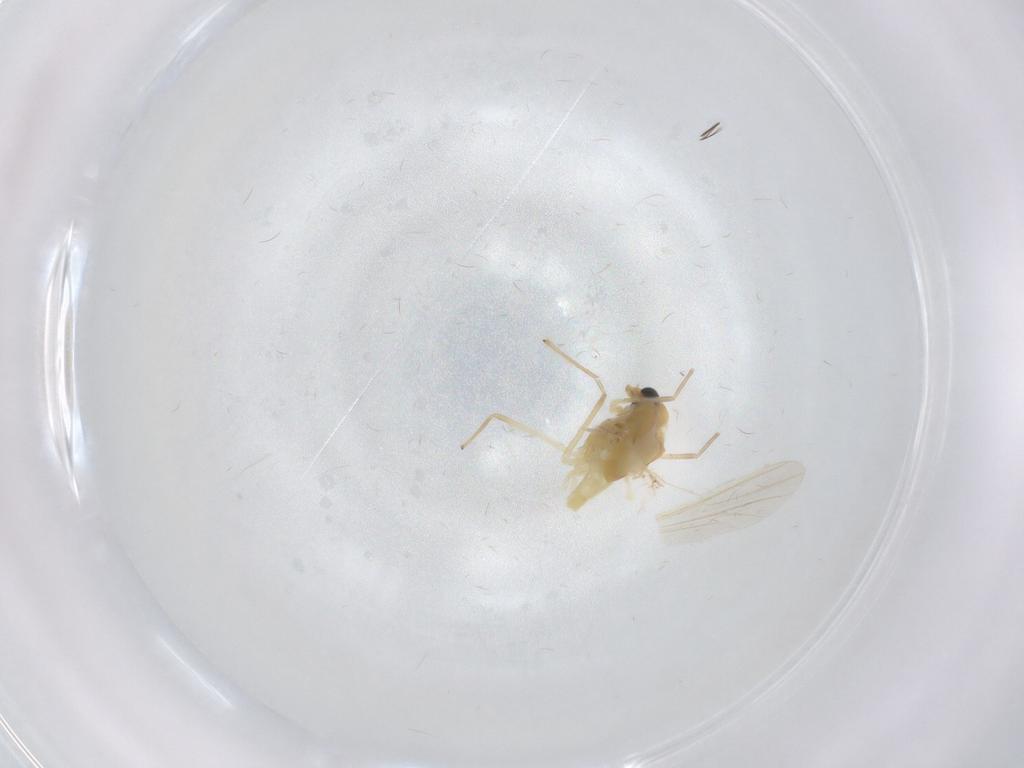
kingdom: Animalia
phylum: Arthropoda
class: Insecta
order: Diptera
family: Chironomidae
